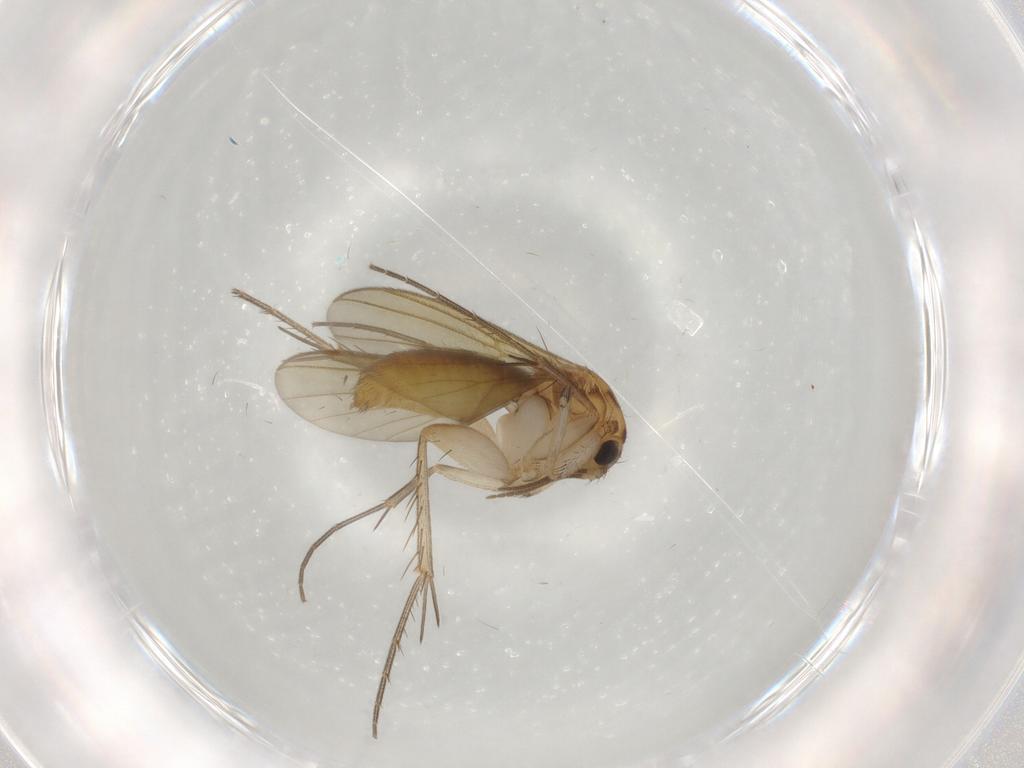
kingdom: Animalia
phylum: Arthropoda
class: Insecta
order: Diptera
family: Mycetophilidae
